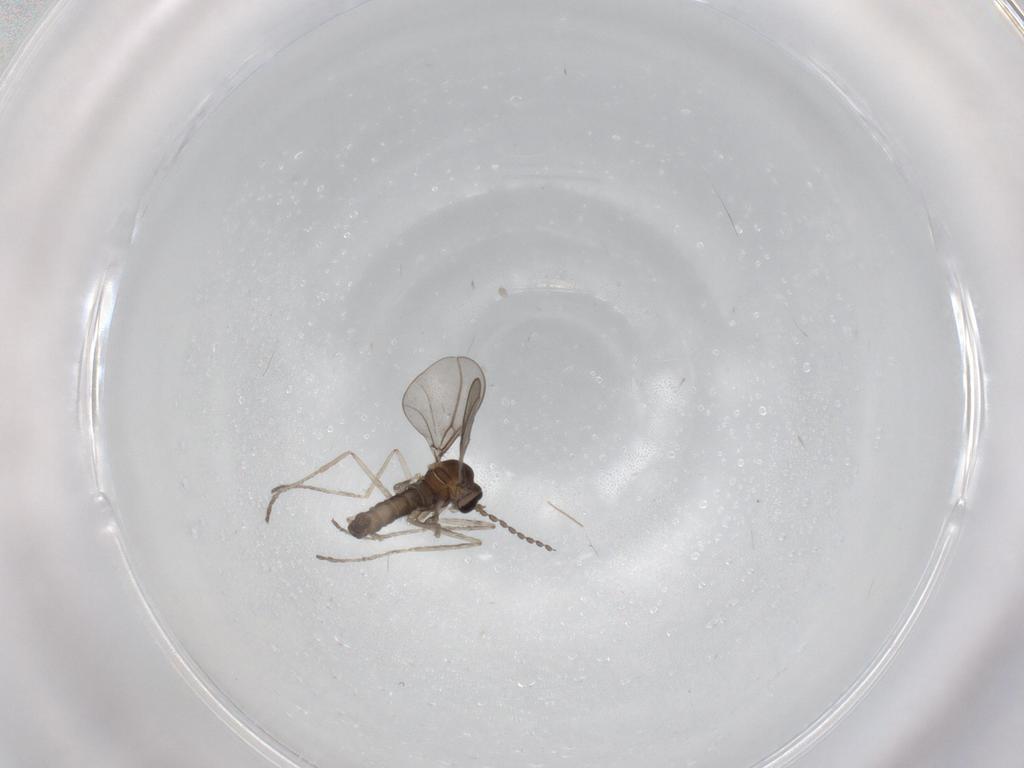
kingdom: Animalia
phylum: Arthropoda
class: Insecta
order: Diptera
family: Cecidomyiidae
